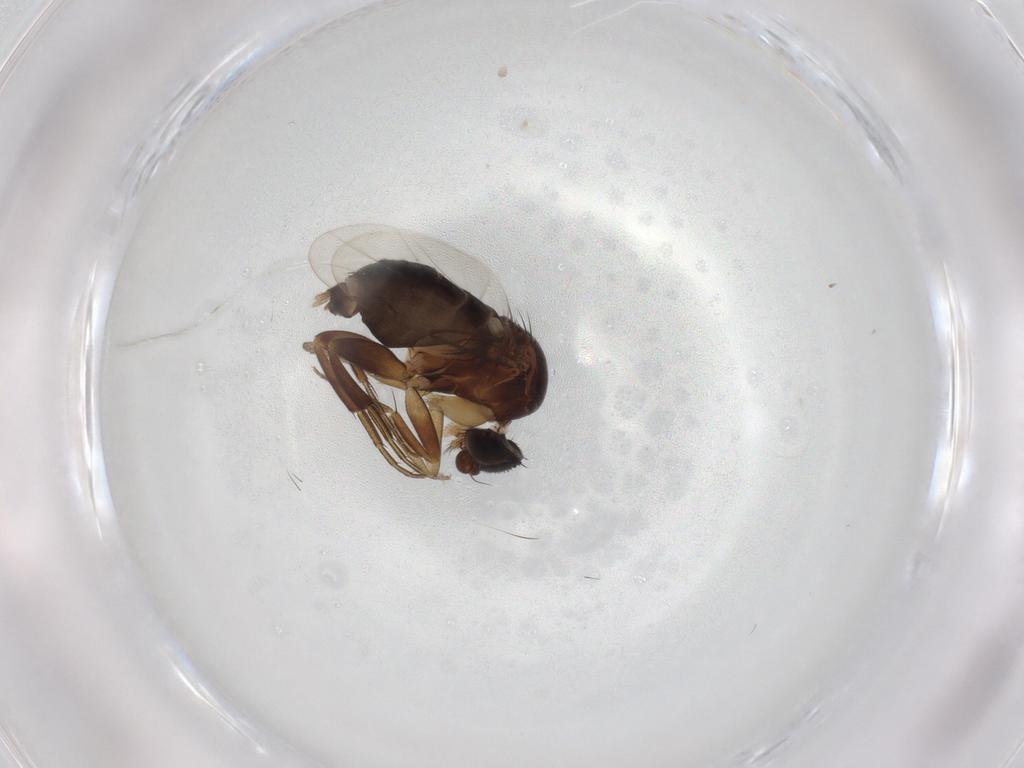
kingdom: Animalia
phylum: Arthropoda
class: Insecta
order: Diptera
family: Phoridae
